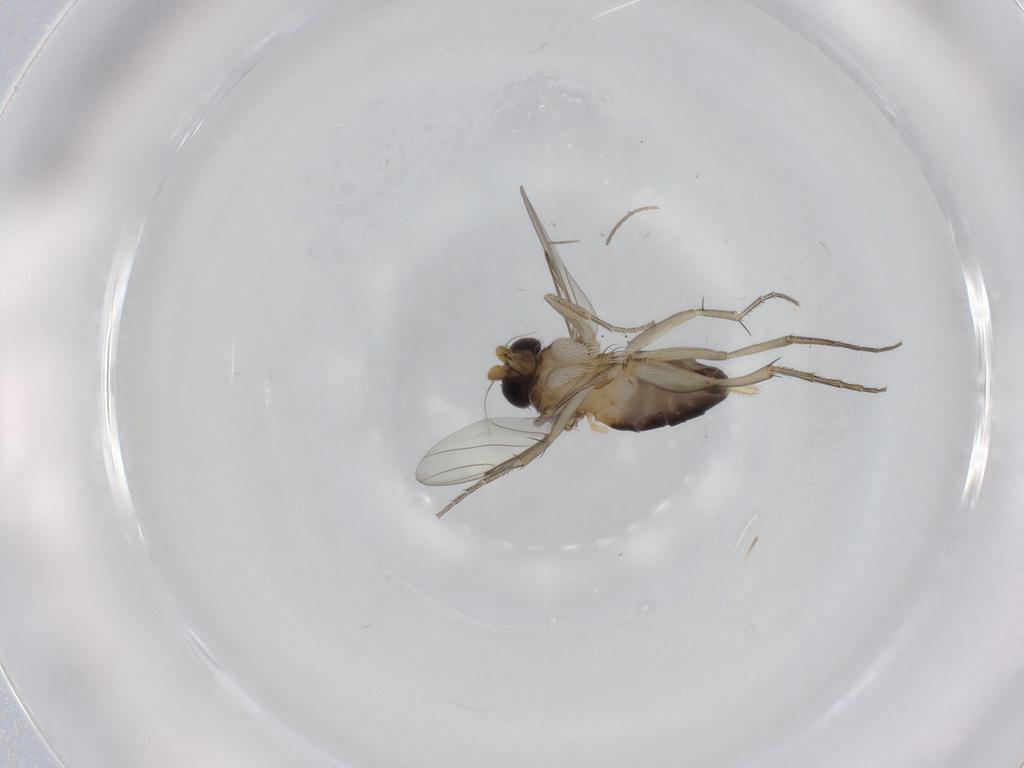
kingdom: Animalia
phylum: Arthropoda
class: Insecta
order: Diptera
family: Phoridae
